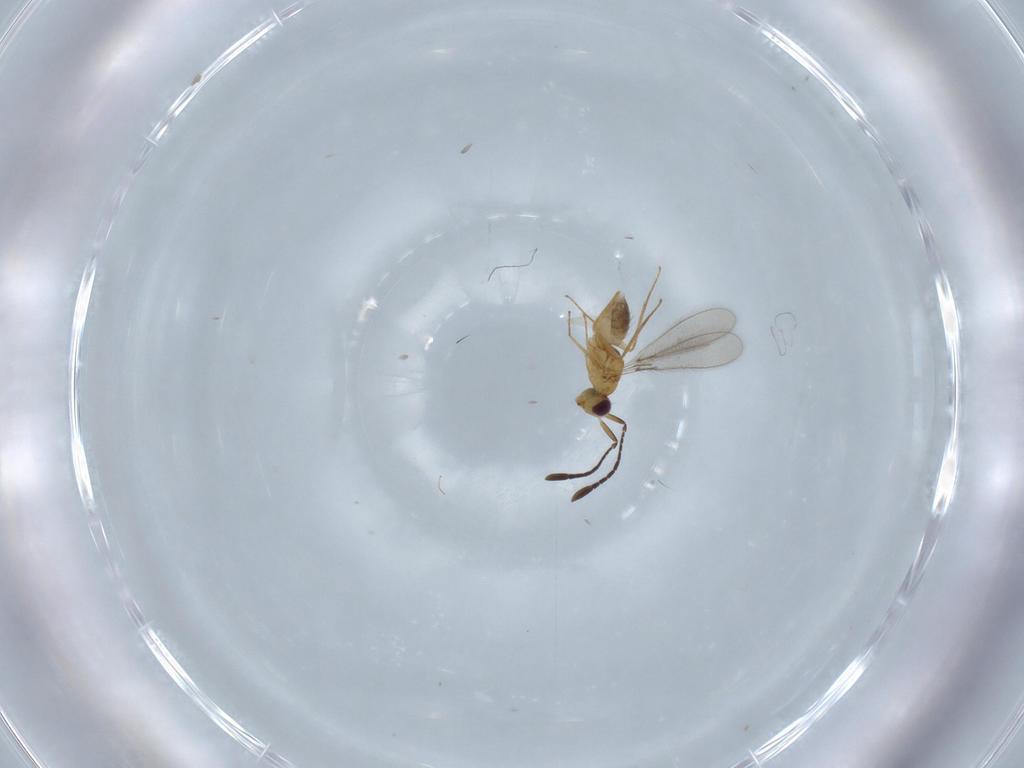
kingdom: Animalia
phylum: Arthropoda
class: Insecta
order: Hymenoptera
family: Mymaridae
